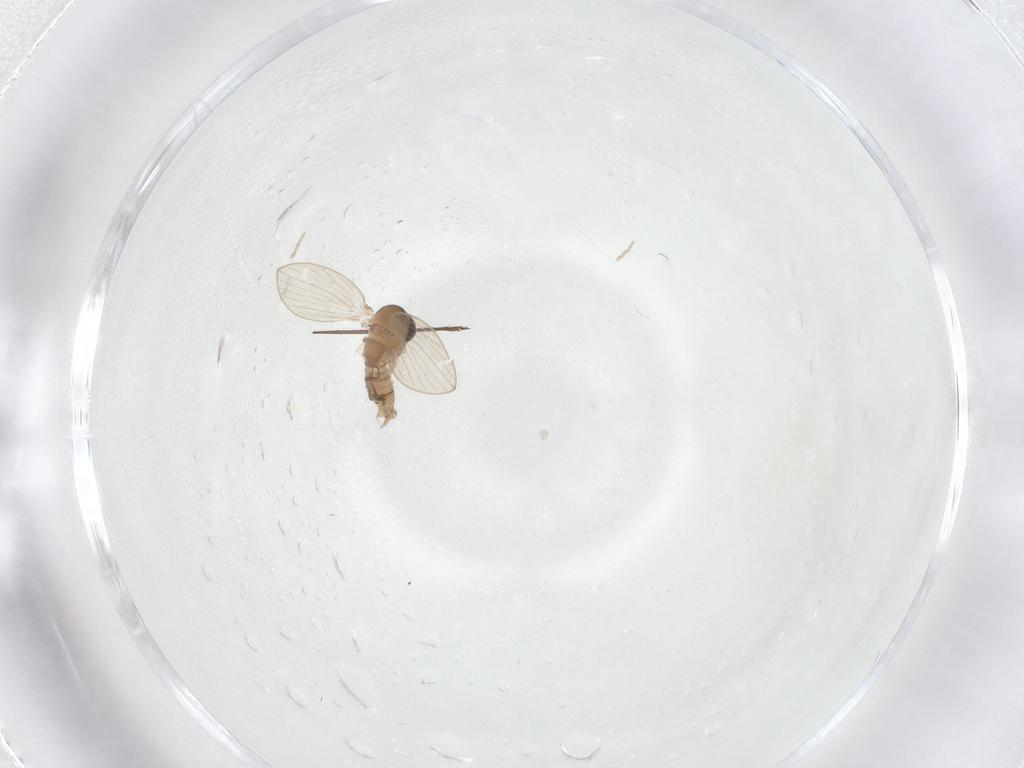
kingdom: Animalia
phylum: Arthropoda
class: Insecta
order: Diptera
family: Psychodidae
